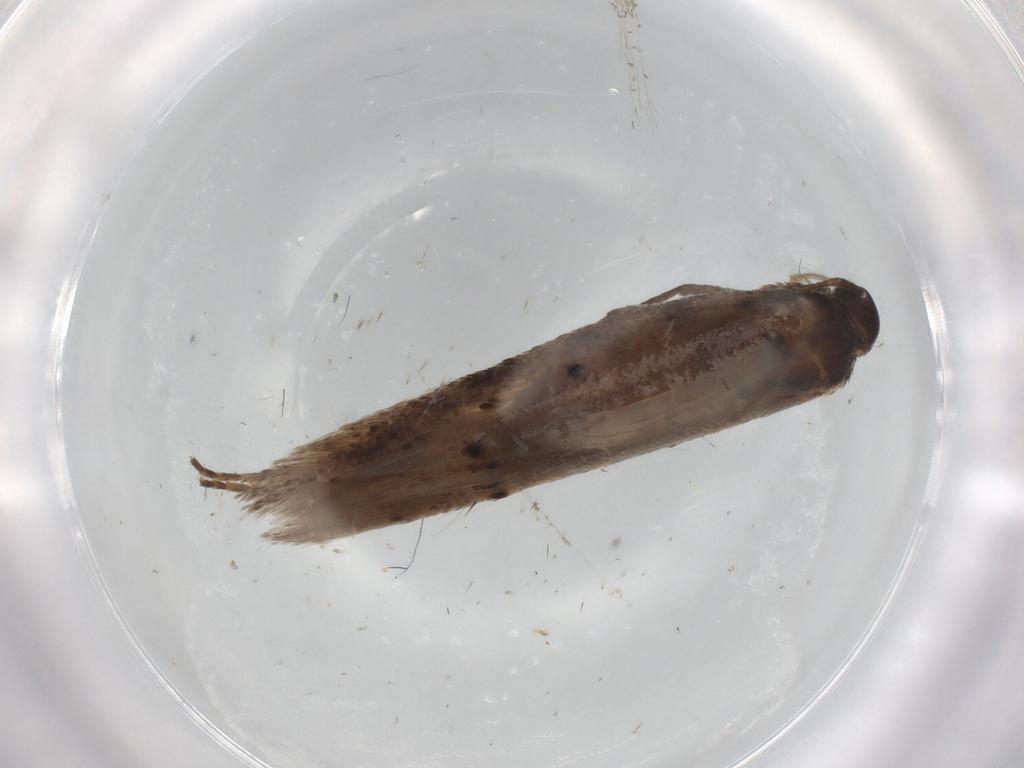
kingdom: Animalia
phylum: Arthropoda
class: Insecta
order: Lepidoptera
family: Gelechiidae
